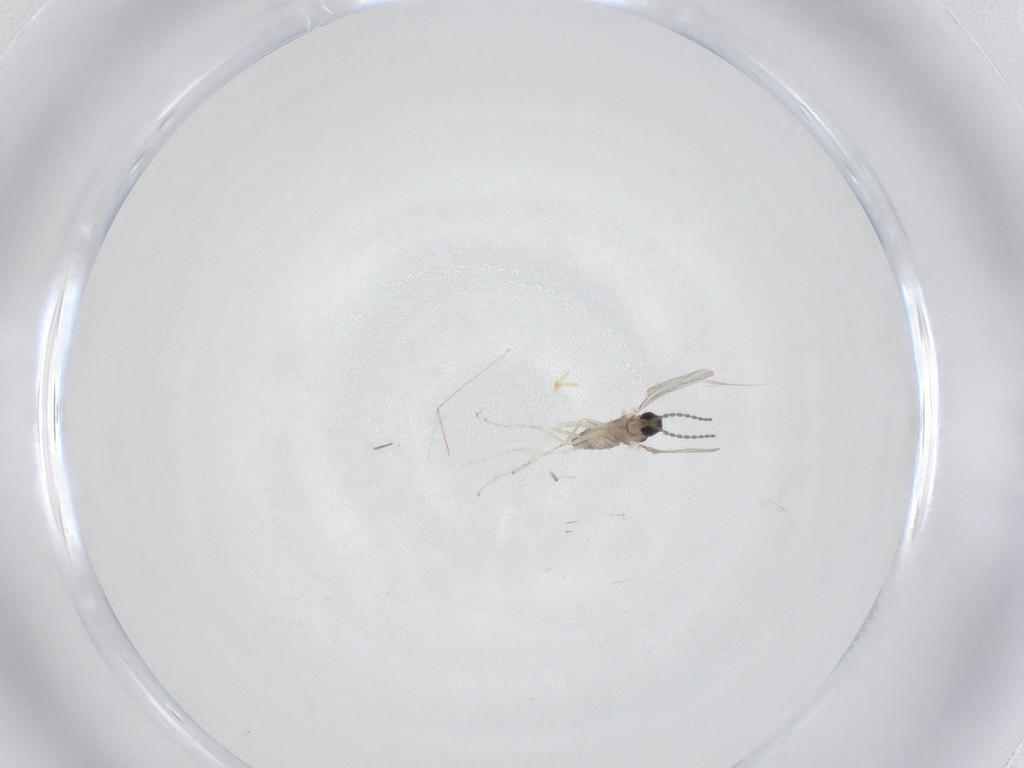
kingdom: Animalia
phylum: Arthropoda
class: Insecta
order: Diptera
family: Cecidomyiidae
